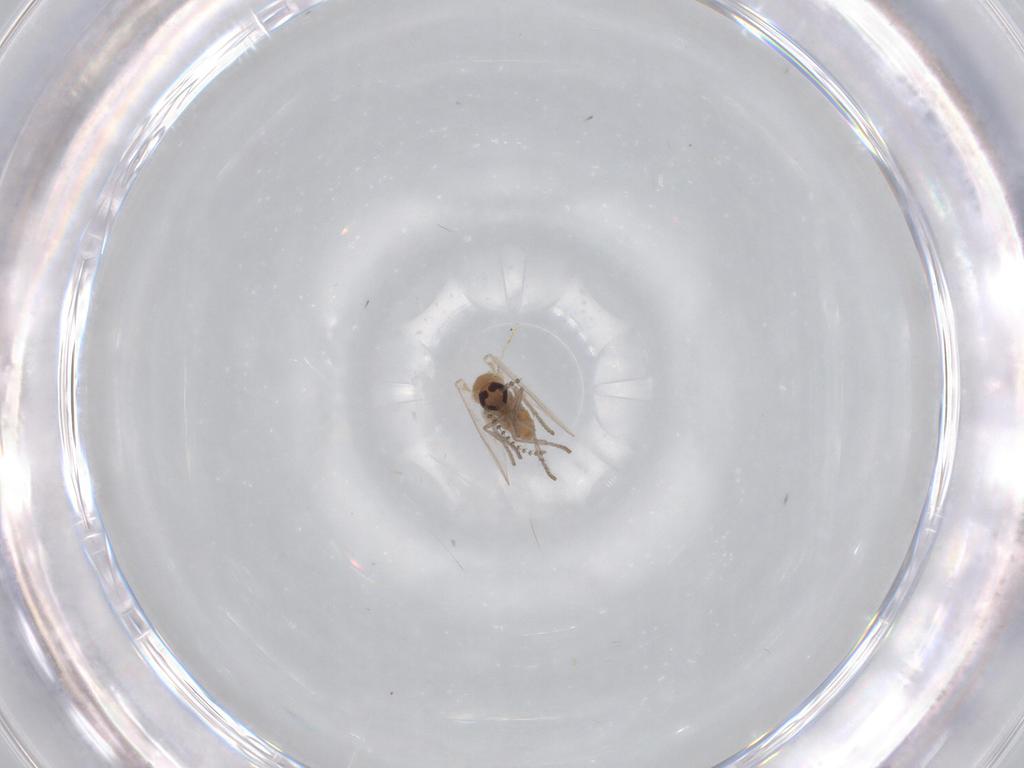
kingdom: Animalia
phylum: Arthropoda
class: Insecta
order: Diptera
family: Psychodidae
